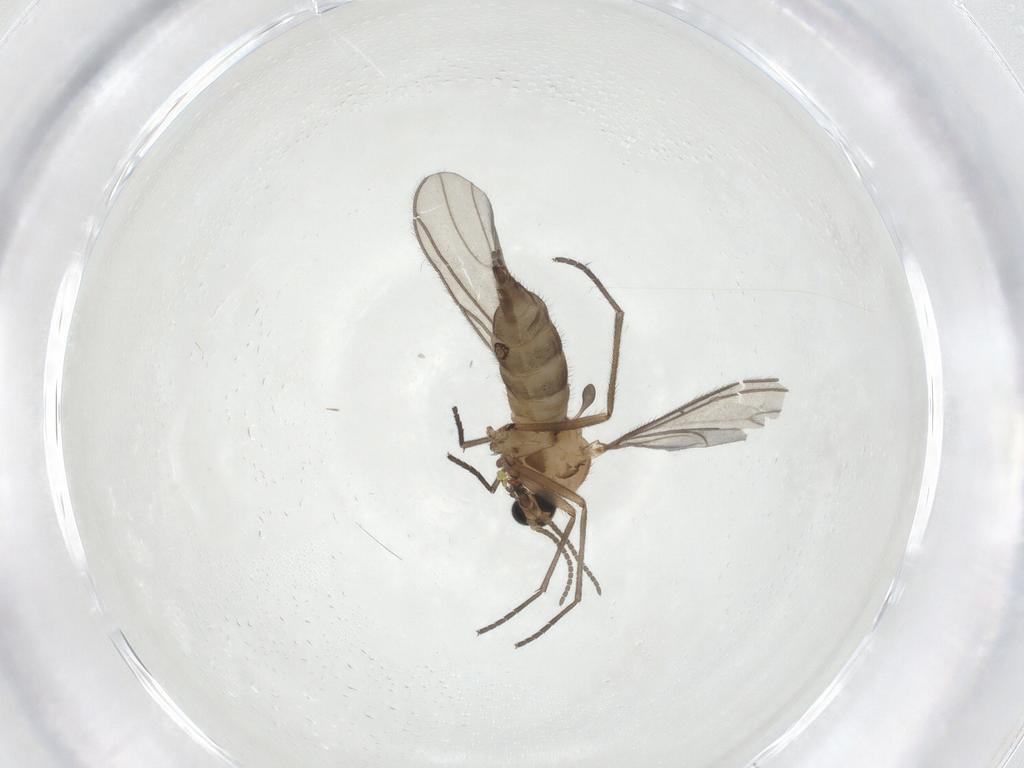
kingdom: Animalia
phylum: Arthropoda
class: Insecta
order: Diptera
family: Sciaridae
